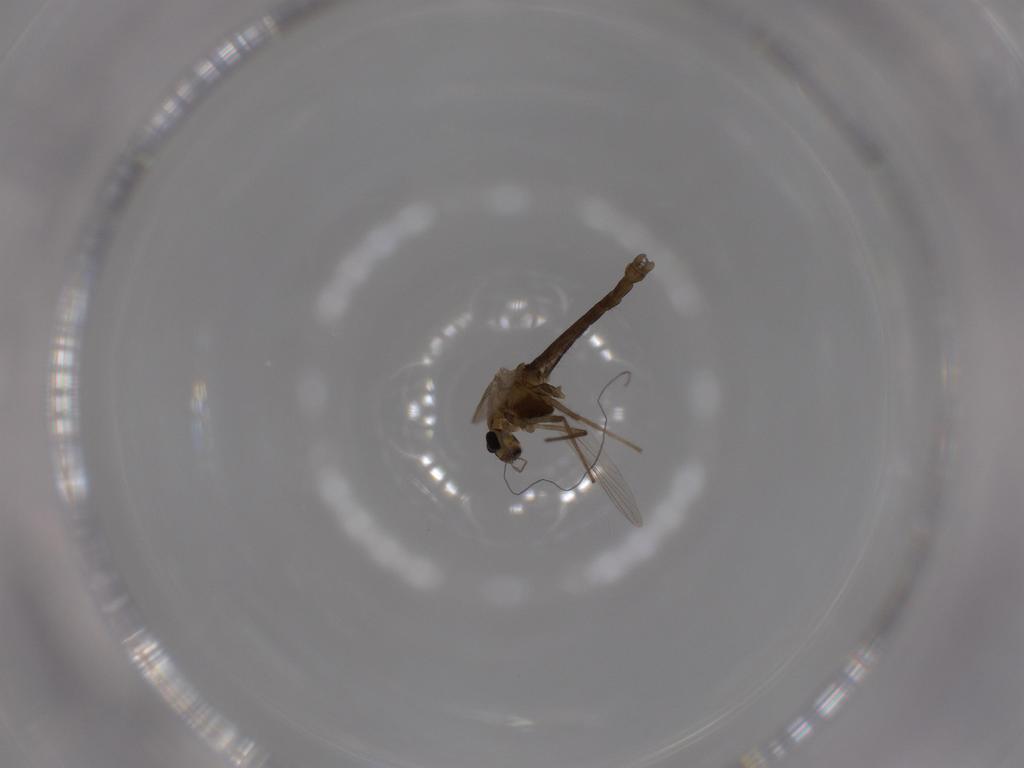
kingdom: Animalia
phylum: Arthropoda
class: Insecta
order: Diptera
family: Chironomidae
